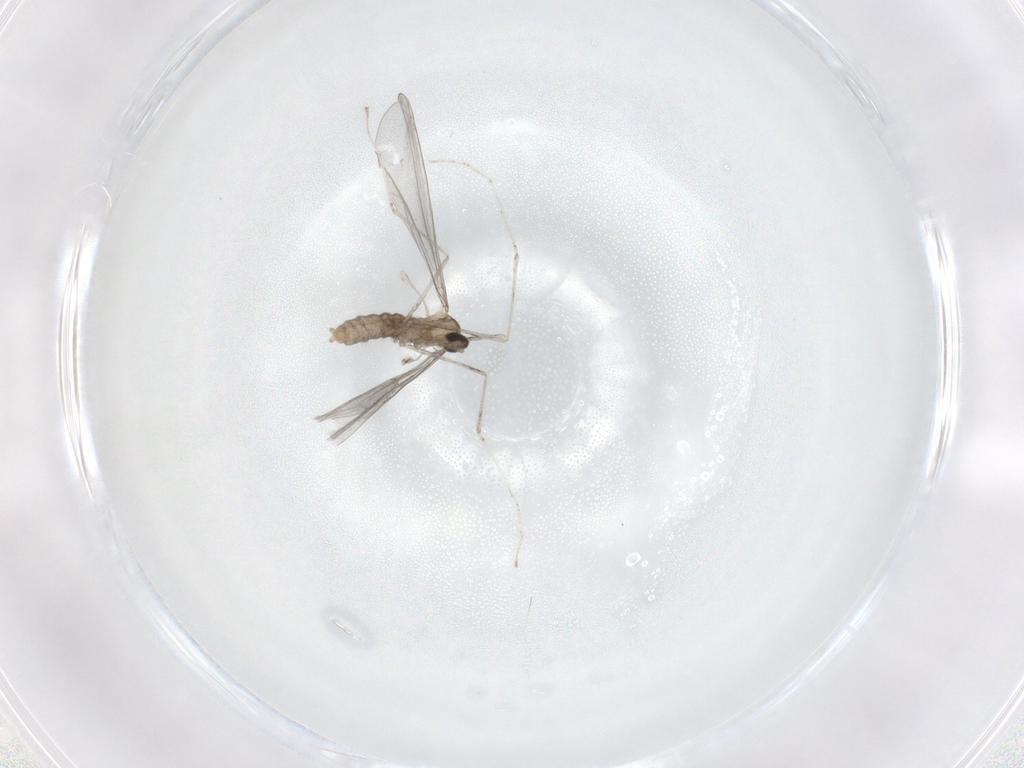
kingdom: Animalia
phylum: Arthropoda
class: Insecta
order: Diptera
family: Cecidomyiidae
